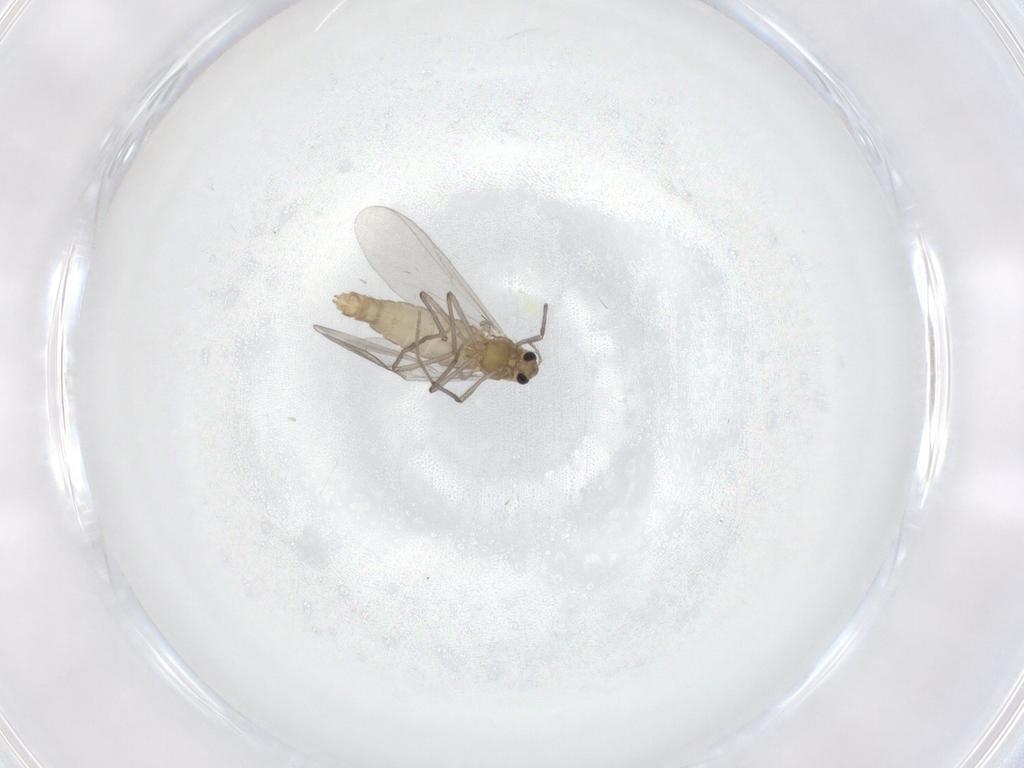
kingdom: Animalia
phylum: Arthropoda
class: Insecta
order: Diptera
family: Chironomidae
